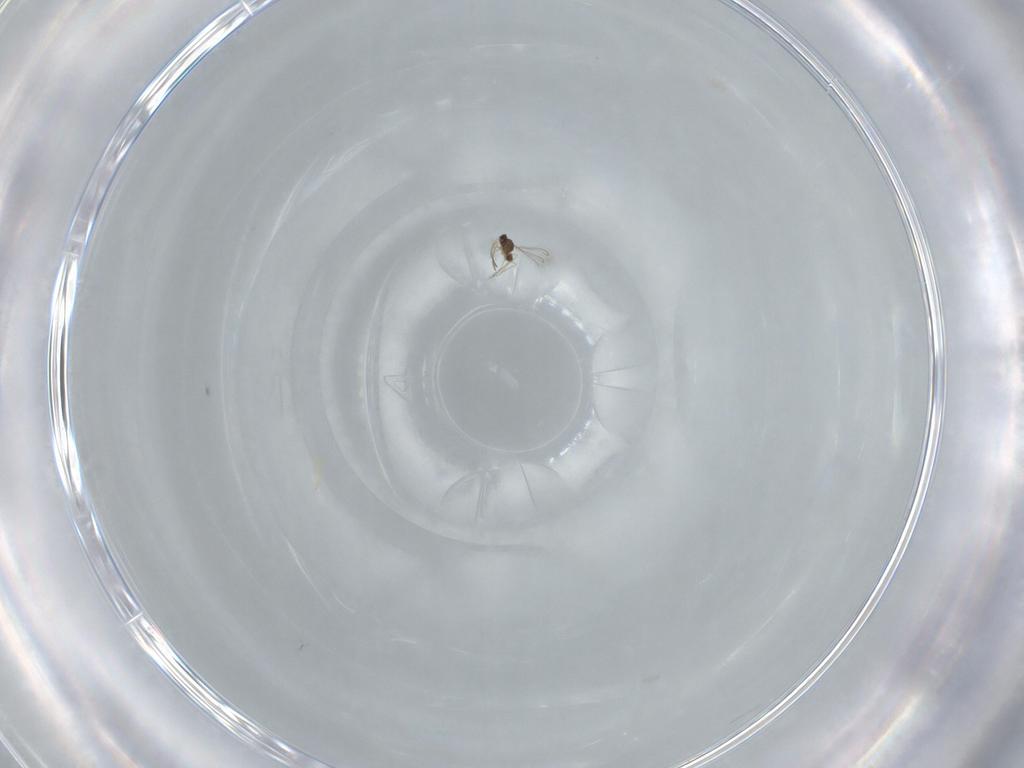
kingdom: Animalia
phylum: Arthropoda
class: Insecta
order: Hymenoptera
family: Mymaridae
